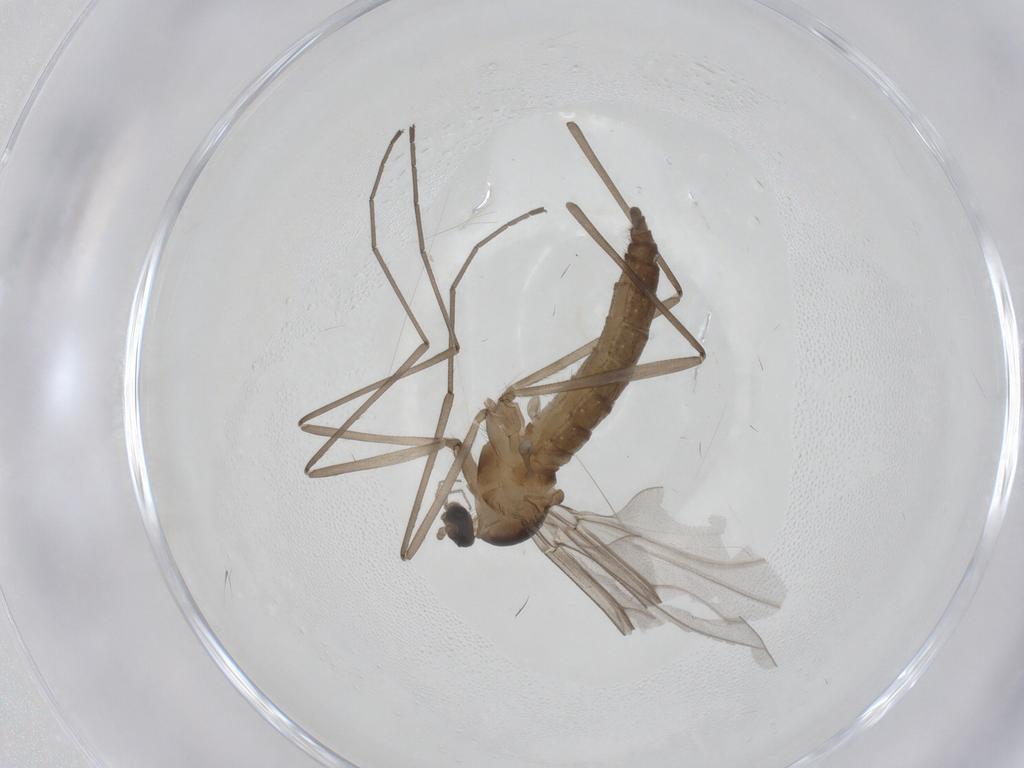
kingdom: Animalia
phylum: Arthropoda
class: Insecta
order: Diptera
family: Cecidomyiidae
